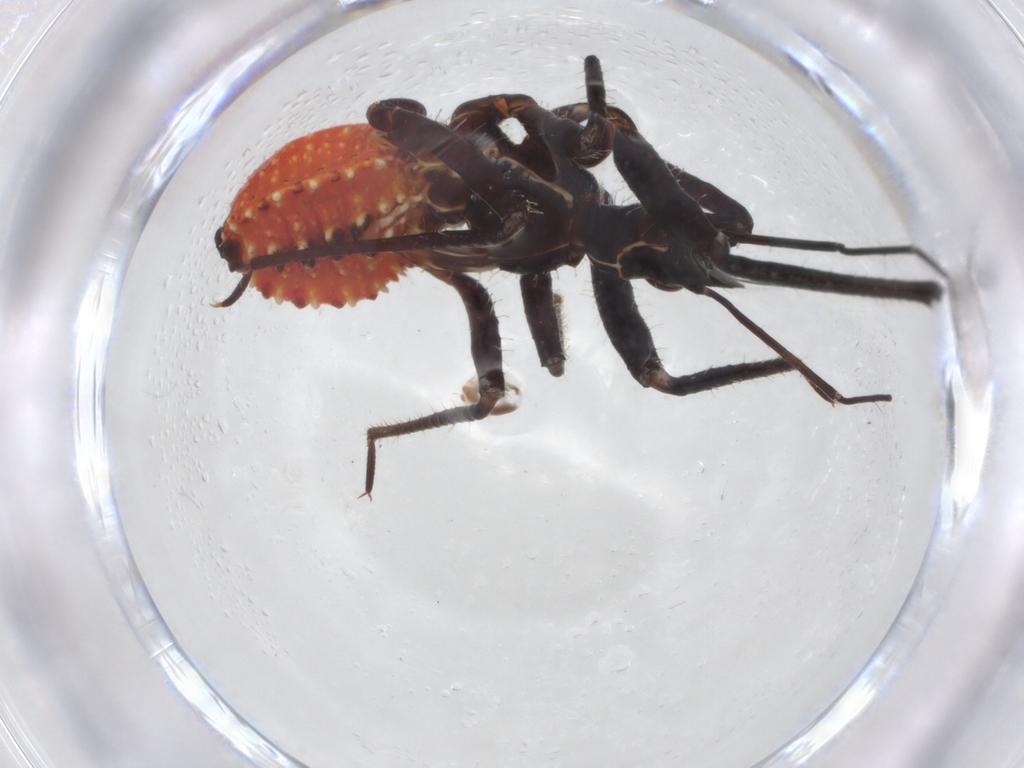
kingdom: Animalia
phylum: Arthropoda
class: Insecta
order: Hemiptera
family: Reduviidae
